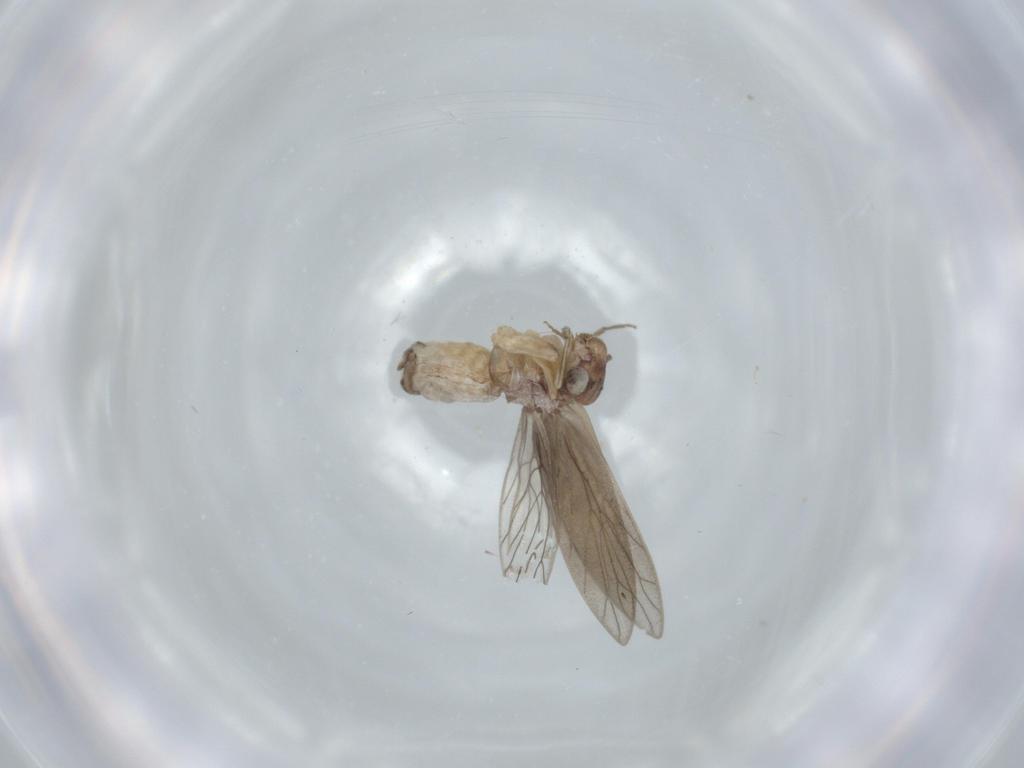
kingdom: Animalia
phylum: Arthropoda
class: Insecta
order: Psocodea
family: Lepidopsocidae
